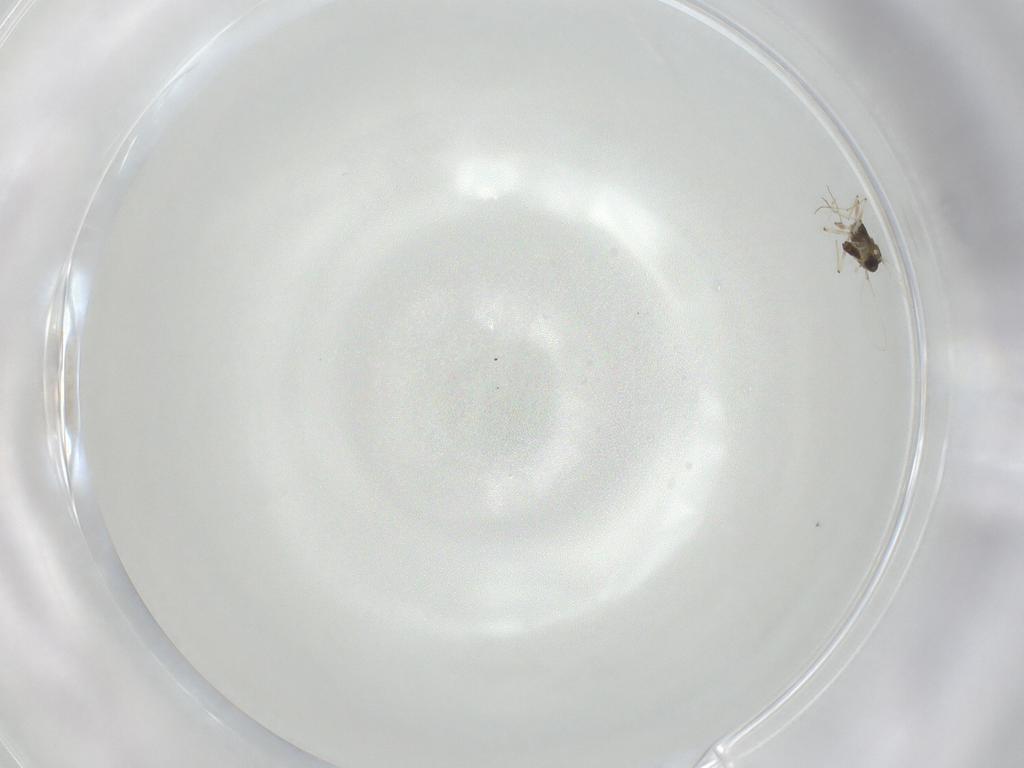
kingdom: Animalia
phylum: Arthropoda
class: Insecta
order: Diptera
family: Chironomidae
